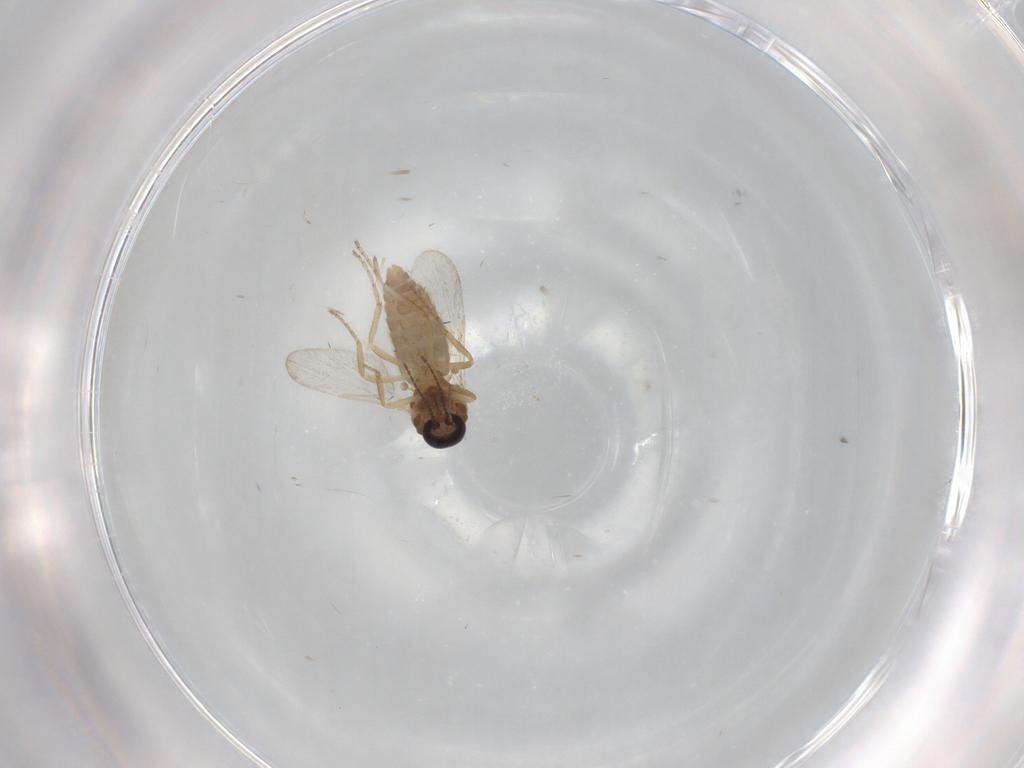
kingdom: Animalia
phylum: Arthropoda
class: Insecta
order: Diptera
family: Ceratopogonidae
